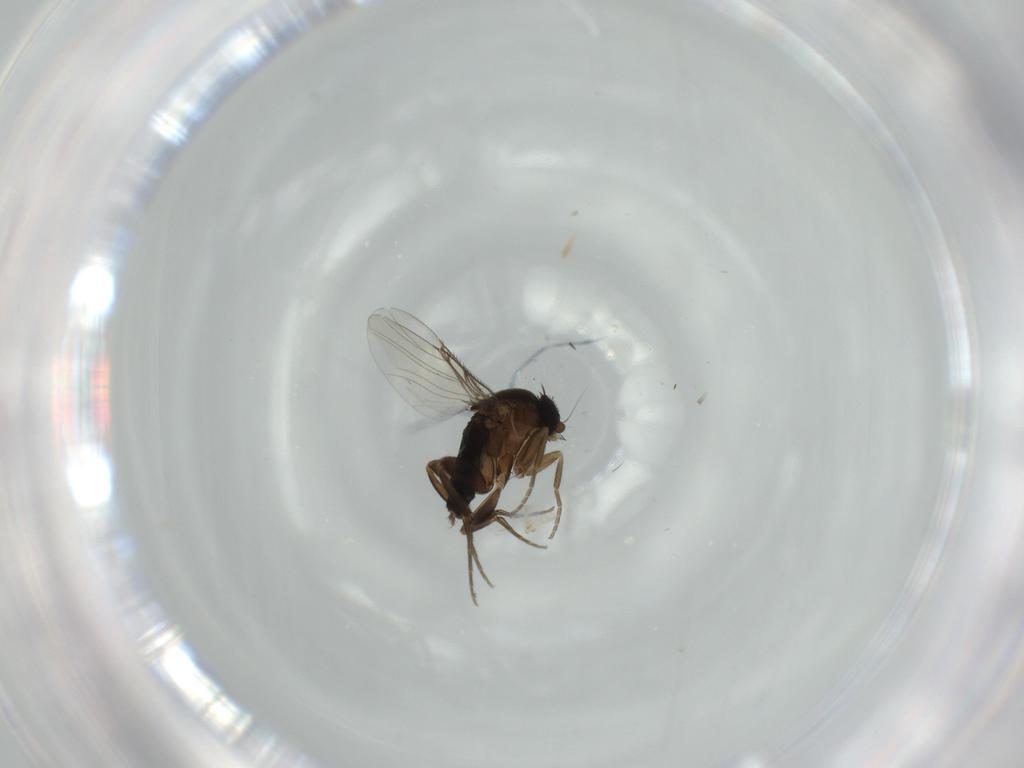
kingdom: Animalia
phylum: Arthropoda
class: Insecta
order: Diptera
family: Phoridae
